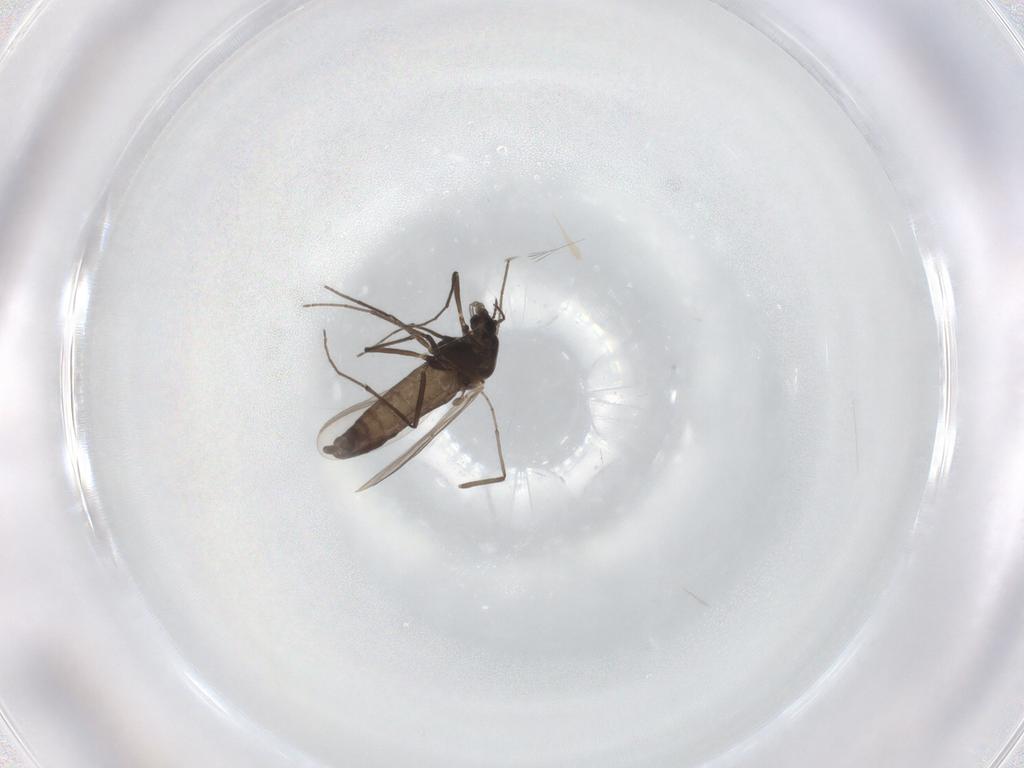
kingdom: Animalia
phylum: Arthropoda
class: Insecta
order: Diptera
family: Chironomidae
